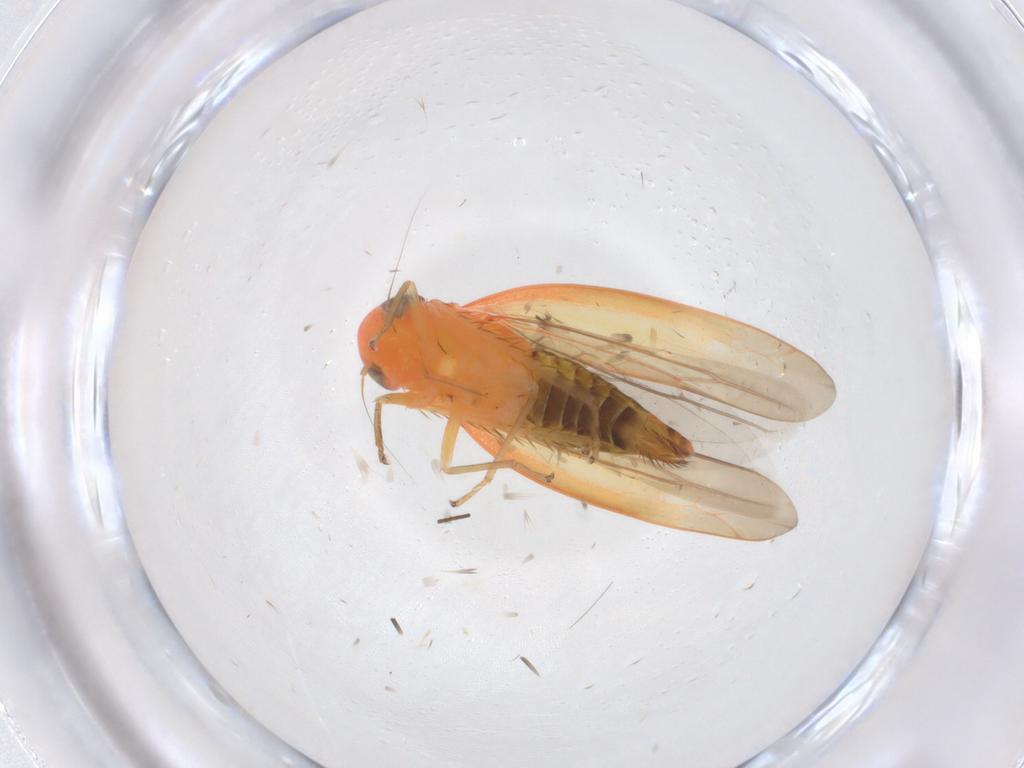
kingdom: Animalia
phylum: Arthropoda
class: Insecta
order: Hemiptera
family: Cicadellidae
